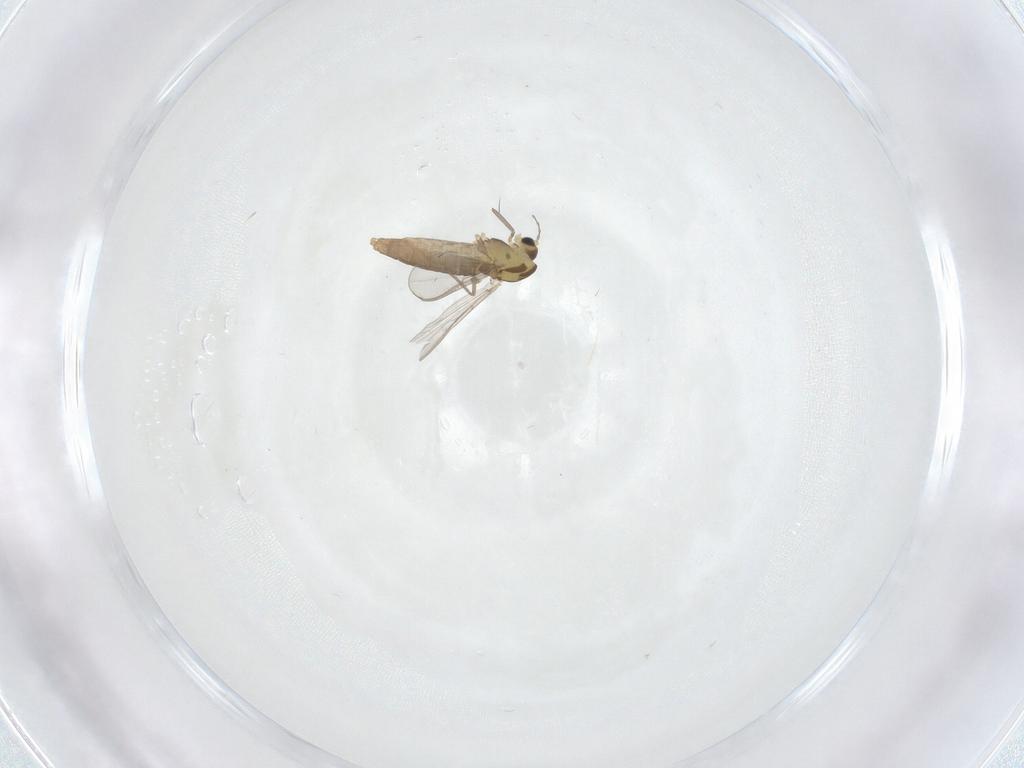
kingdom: Animalia
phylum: Arthropoda
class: Insecta
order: Diptera
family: Chironomidae
